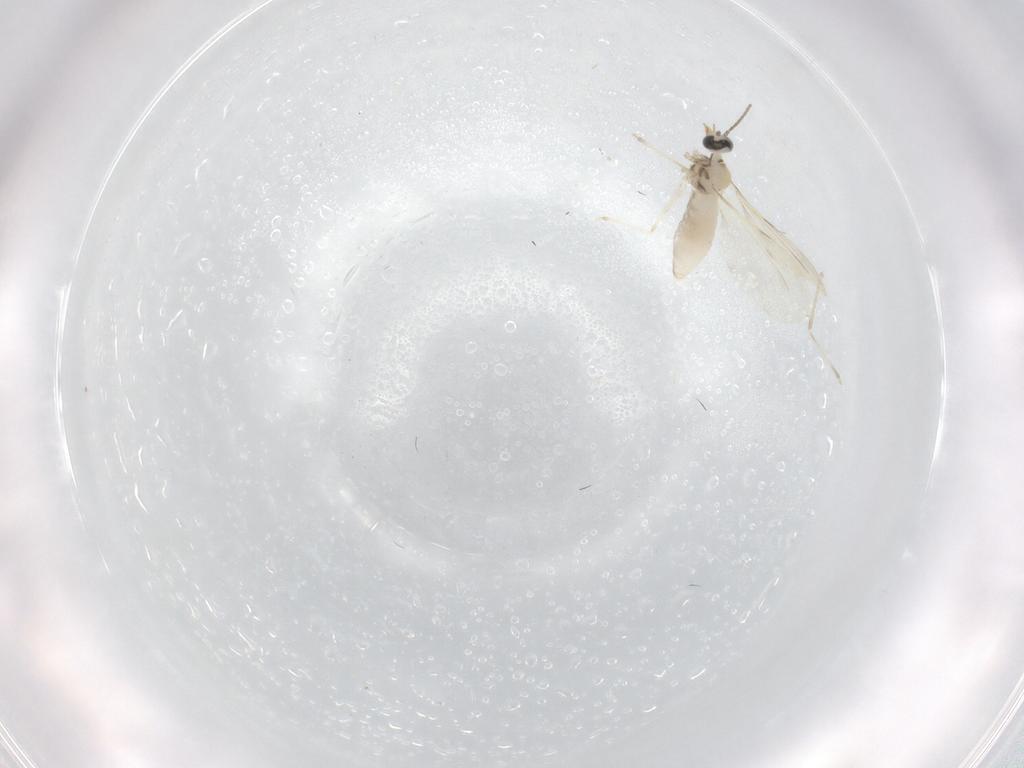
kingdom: Animalia
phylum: Arthropoda
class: Insecta
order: Diptera
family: Cecidomyiidae
